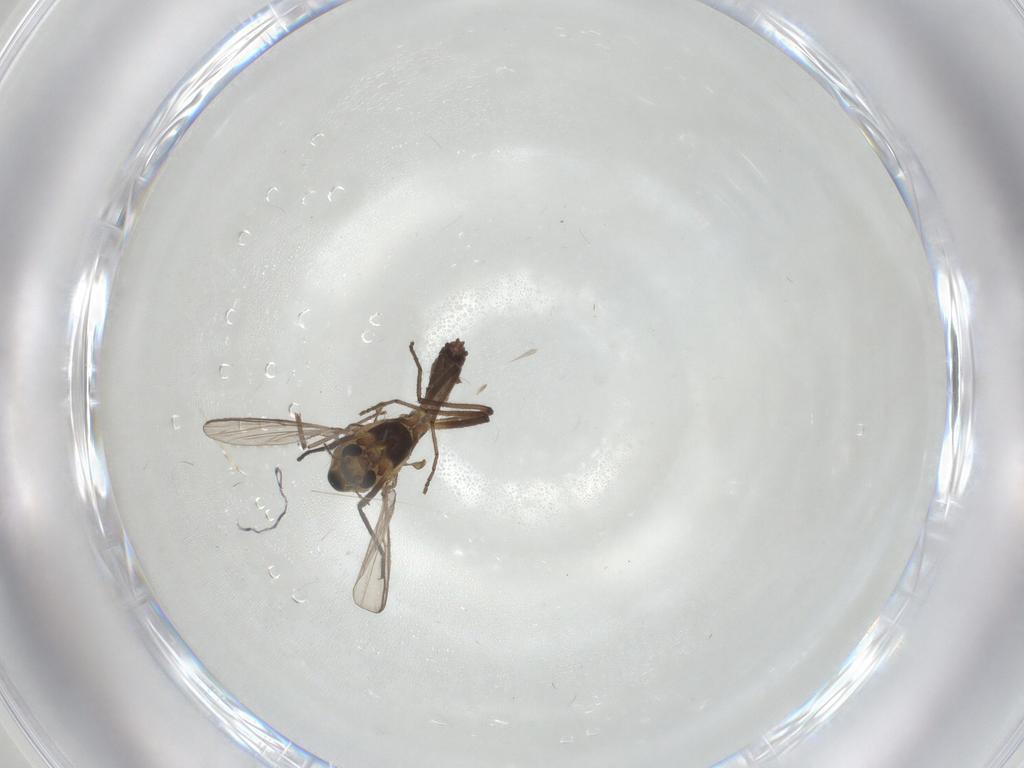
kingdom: Animalia
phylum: Arthropoda
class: Insecta
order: Diptera
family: Chironomidae
